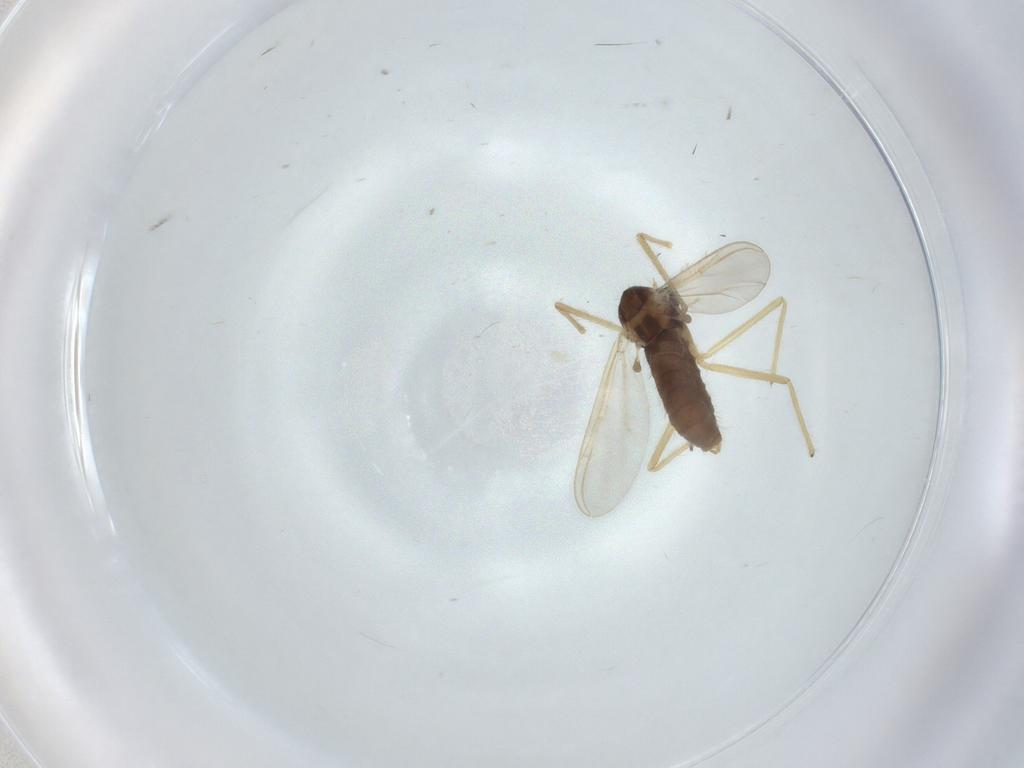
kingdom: Animalia
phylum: Arthropoda
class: Insecta
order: Diptera
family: Chironomidae
